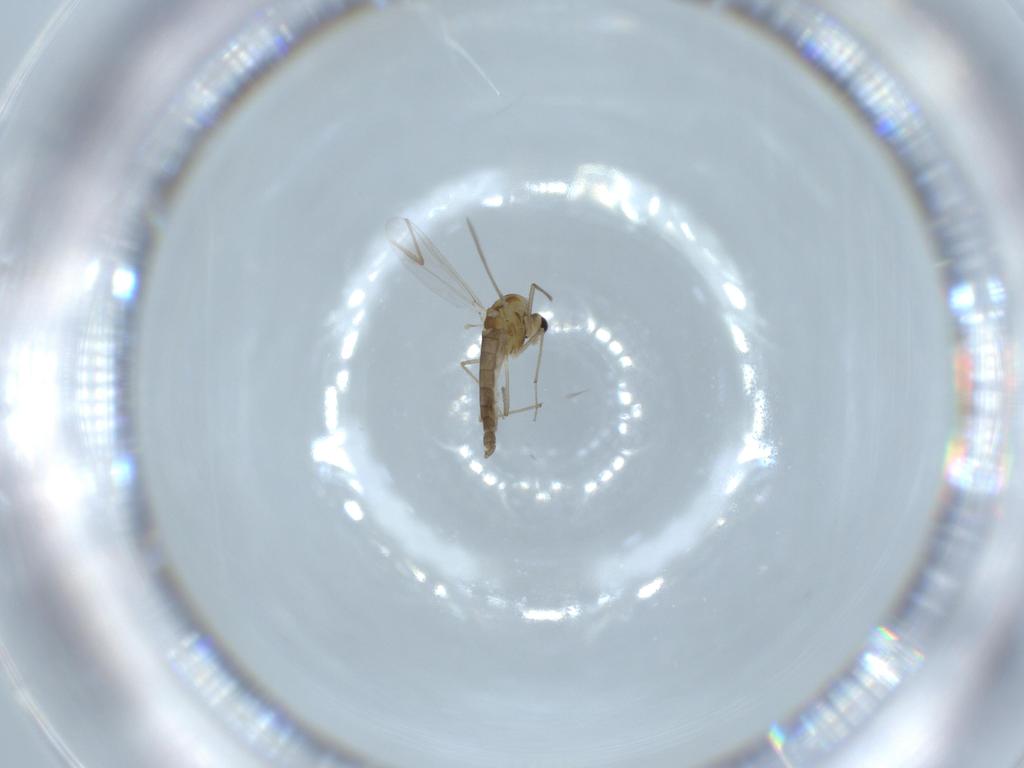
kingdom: Animalia
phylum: Arthropoda
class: Insecta
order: Diptera
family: Chironomidae
